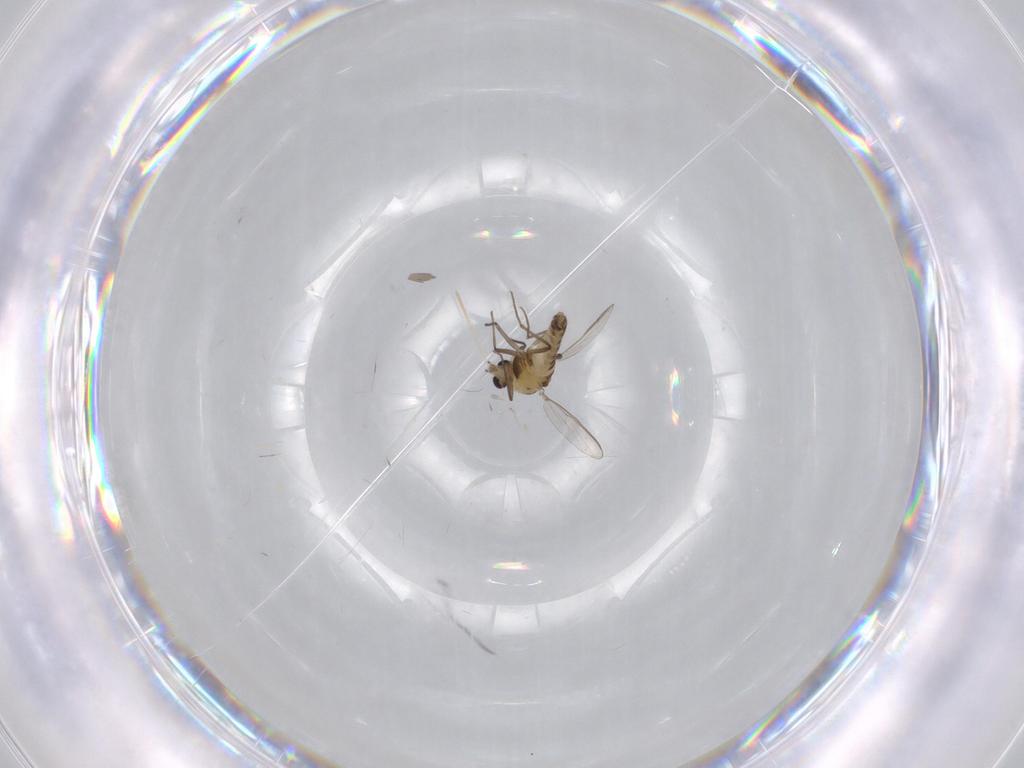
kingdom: Animalia
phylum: Arthropoda
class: Insecta
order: Diptera
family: Chironomidae
